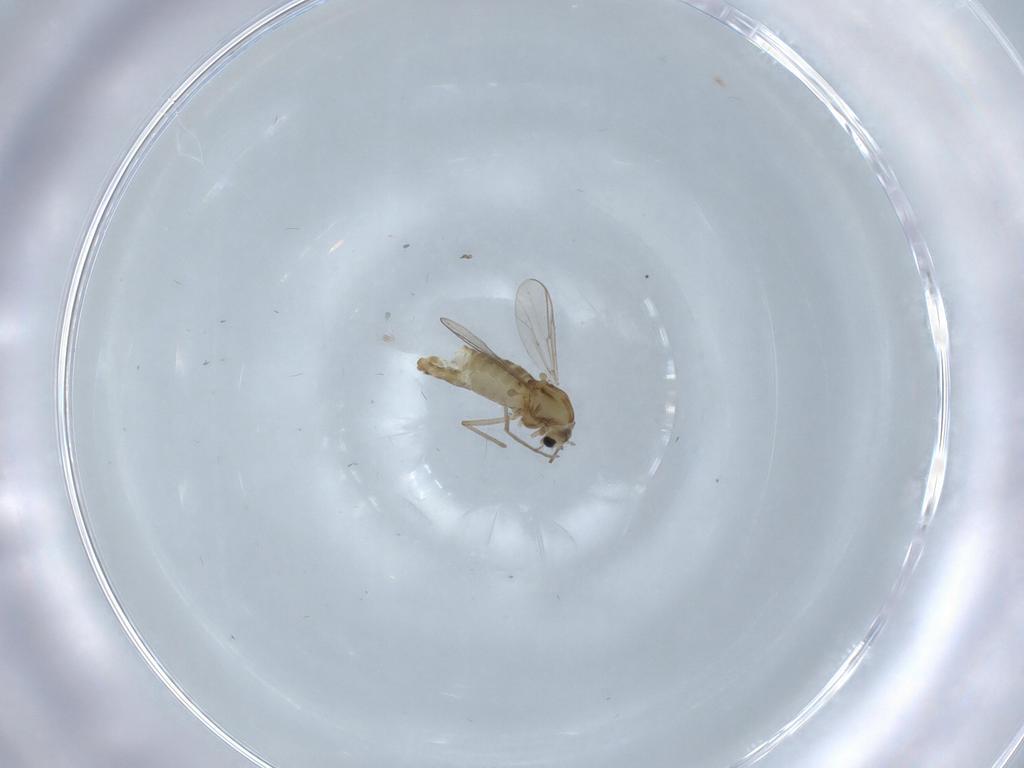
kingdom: Animalia
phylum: Arthropoda
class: Insecta
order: Diptera
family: Chironomidae
